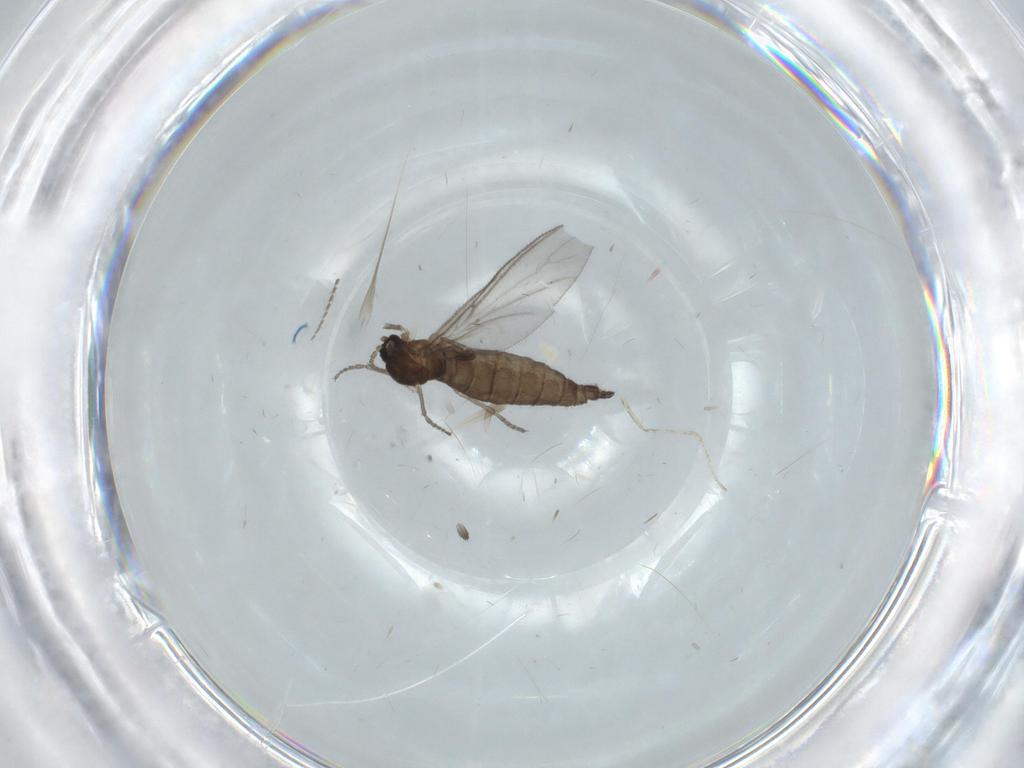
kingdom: Animalia
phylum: Arthropoda
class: Insecta
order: Diptera
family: Sciaridae
